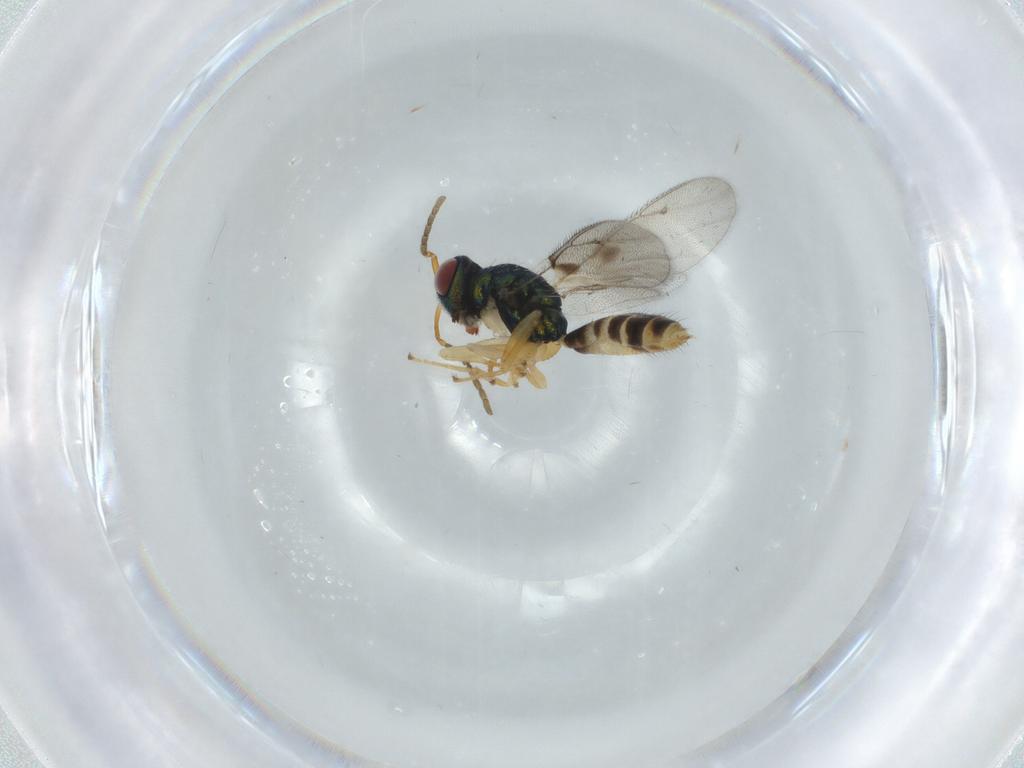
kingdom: Animalia
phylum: Arthropoda
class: Insecta
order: Hymenoptera
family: Pteromalidae
